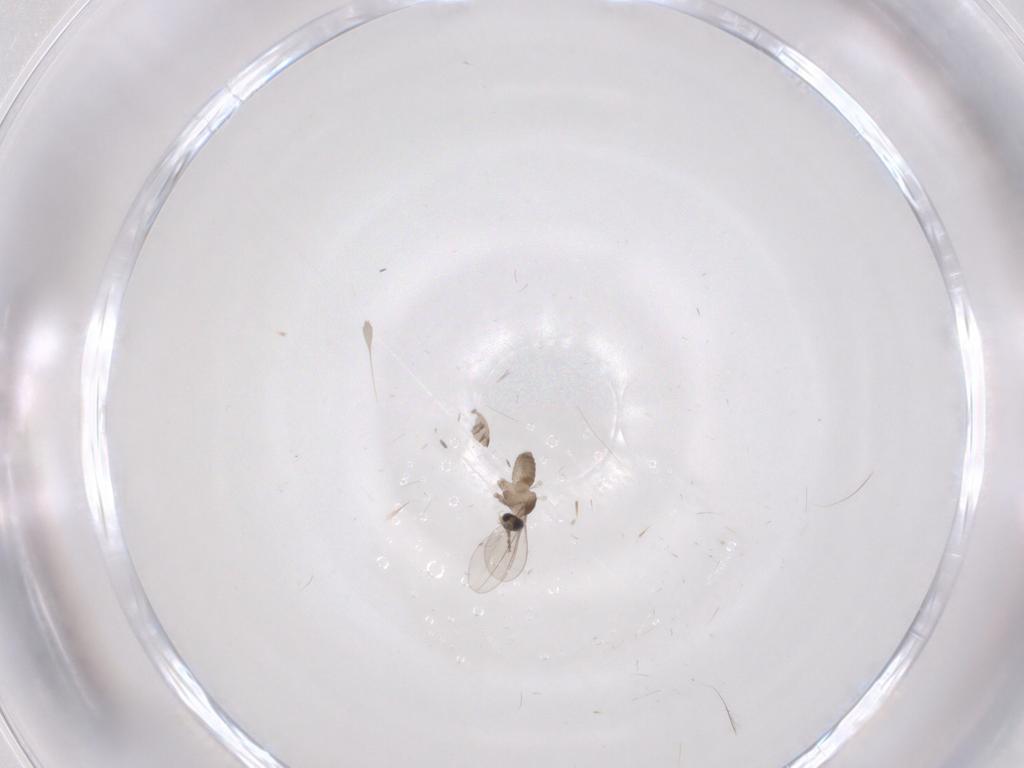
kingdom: Animalia
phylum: Arthropoda
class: Insecta
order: Diptera
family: Cecidomyiidae
